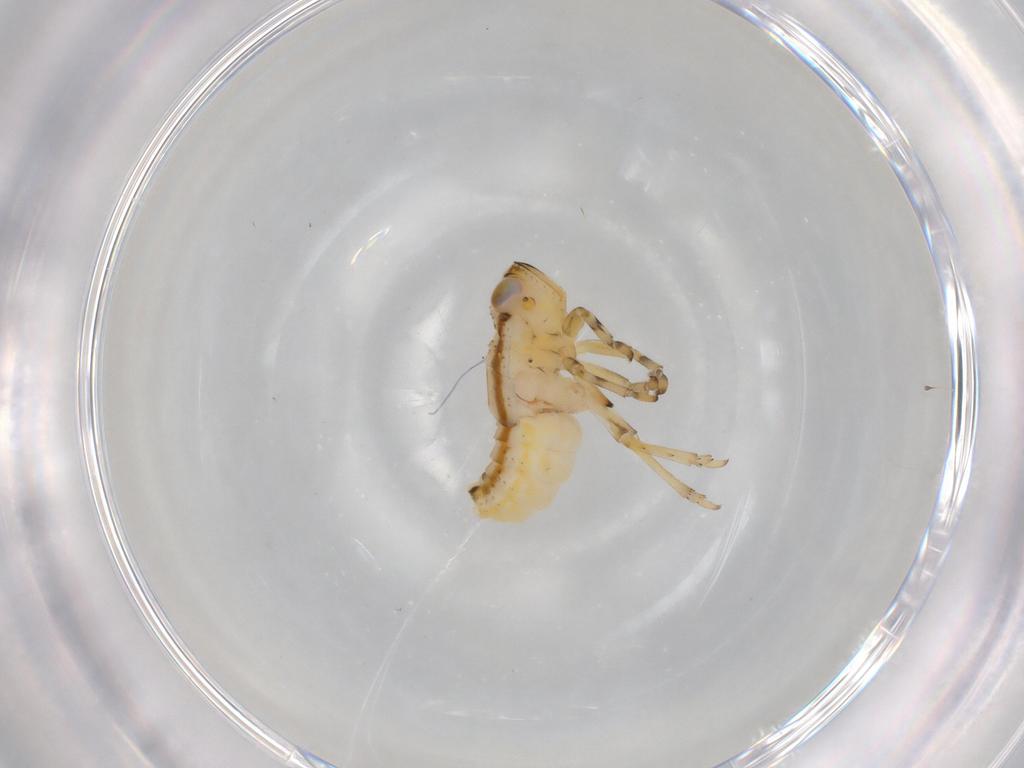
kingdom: Animalia
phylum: Arthropoda
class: Insecta
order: Hemiptera
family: Issidae
